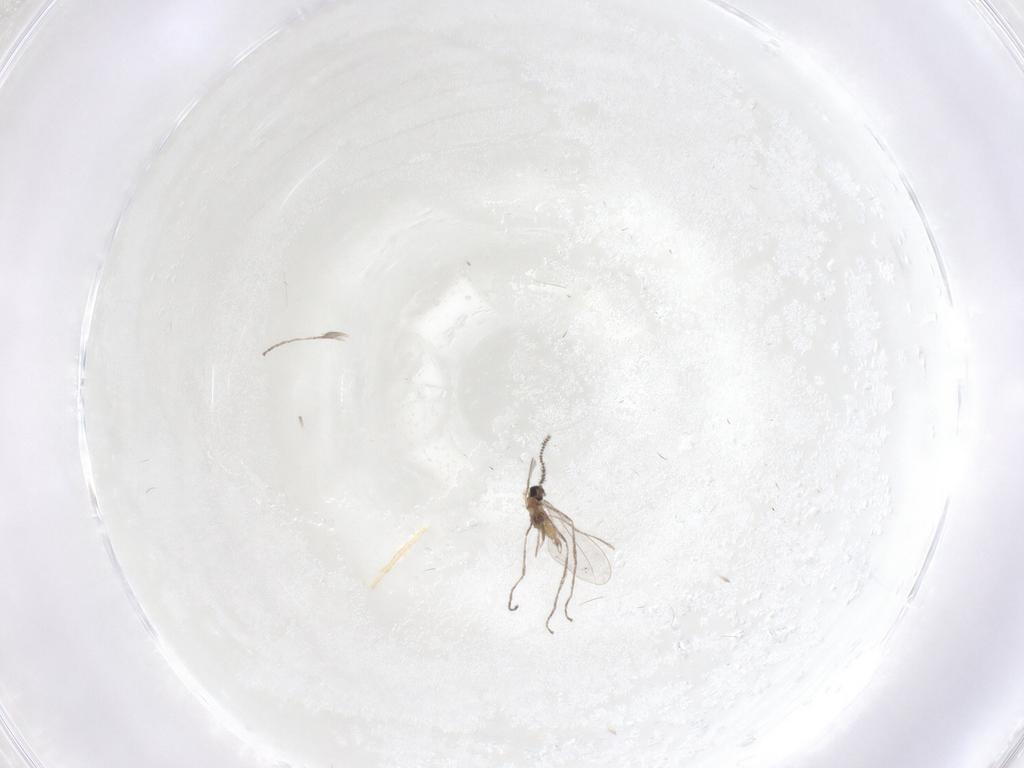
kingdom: Animalia
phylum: Arthropoda
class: Insecta
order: Diptera
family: Cecidomyiidae
